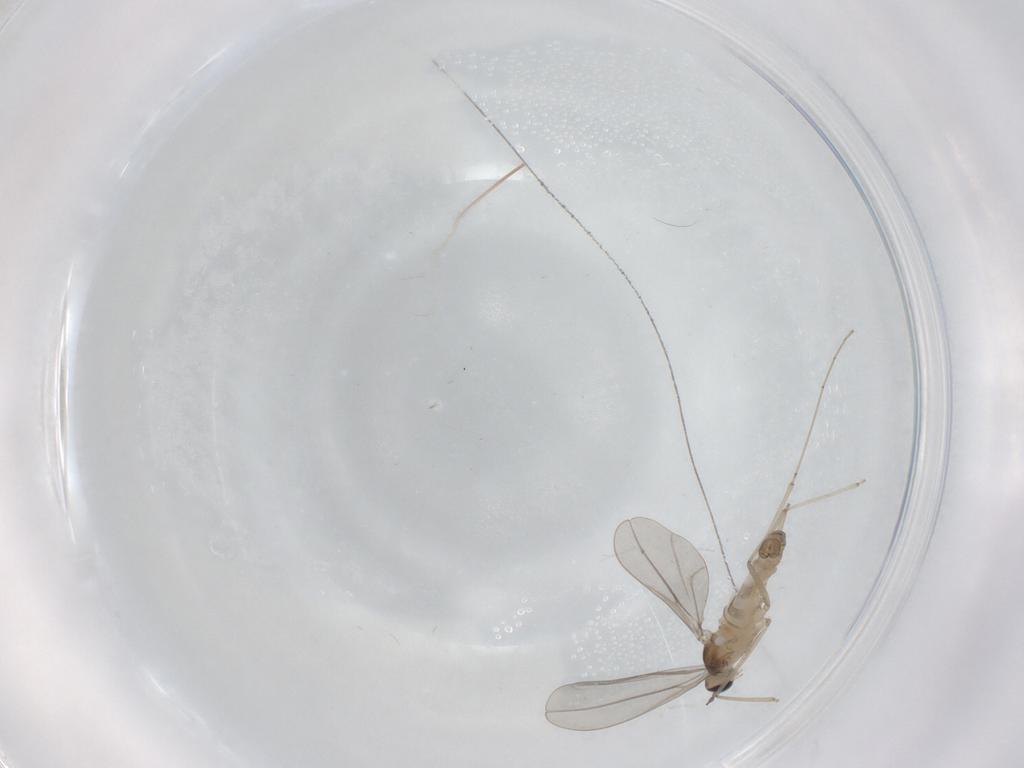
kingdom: Animalia
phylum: Arthropoda
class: Insecta
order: Diptera
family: Cecidomyiidae
